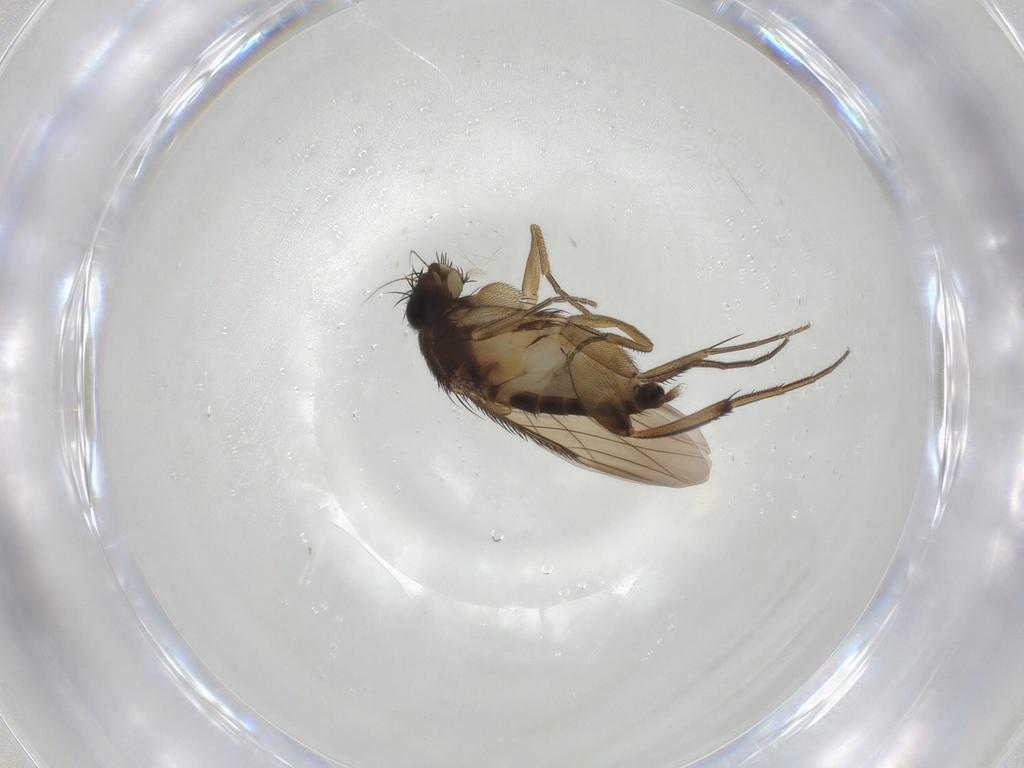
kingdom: Animalia
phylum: Arthropoda
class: Insecta
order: Diptera
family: Phoridae
